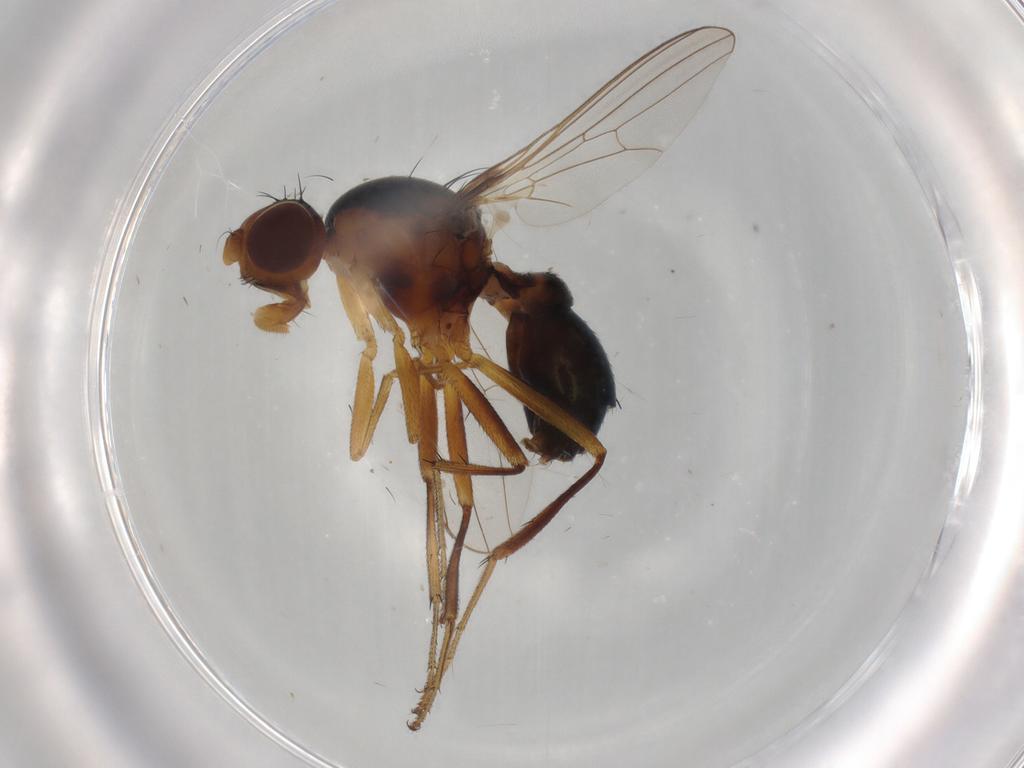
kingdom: Animalia
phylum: Arthropoda
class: Insecta
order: Diptera
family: Sepsidae
